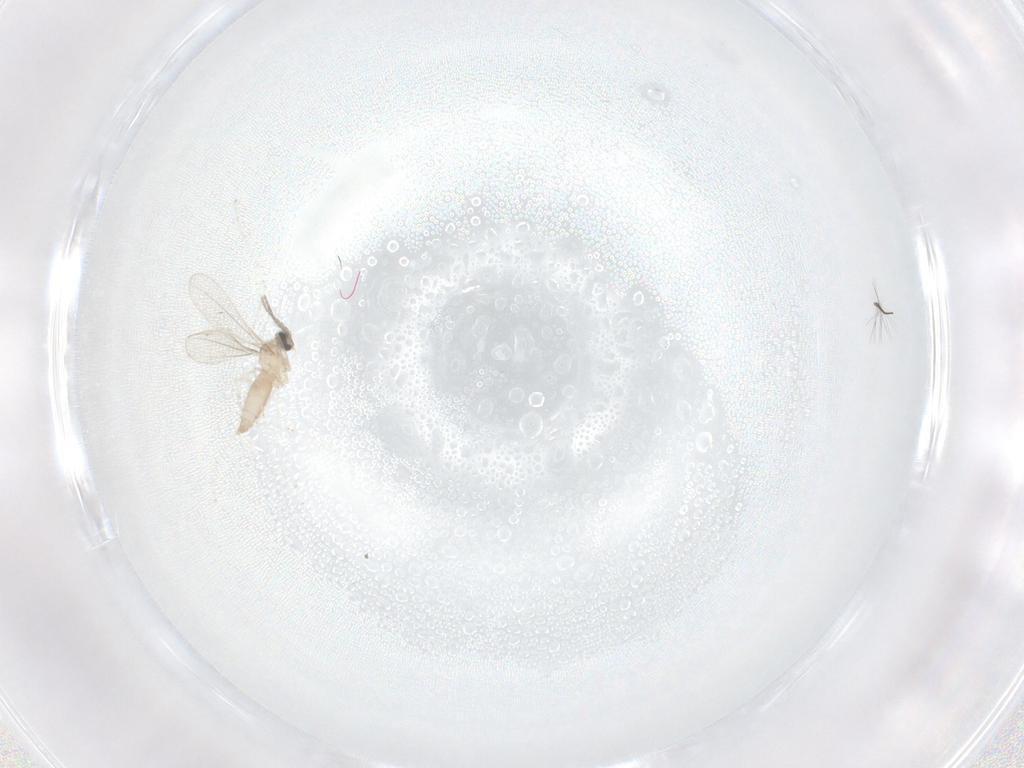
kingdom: Animalia
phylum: Arthropoda
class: Insecta
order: Diptera
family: Chironomidae
